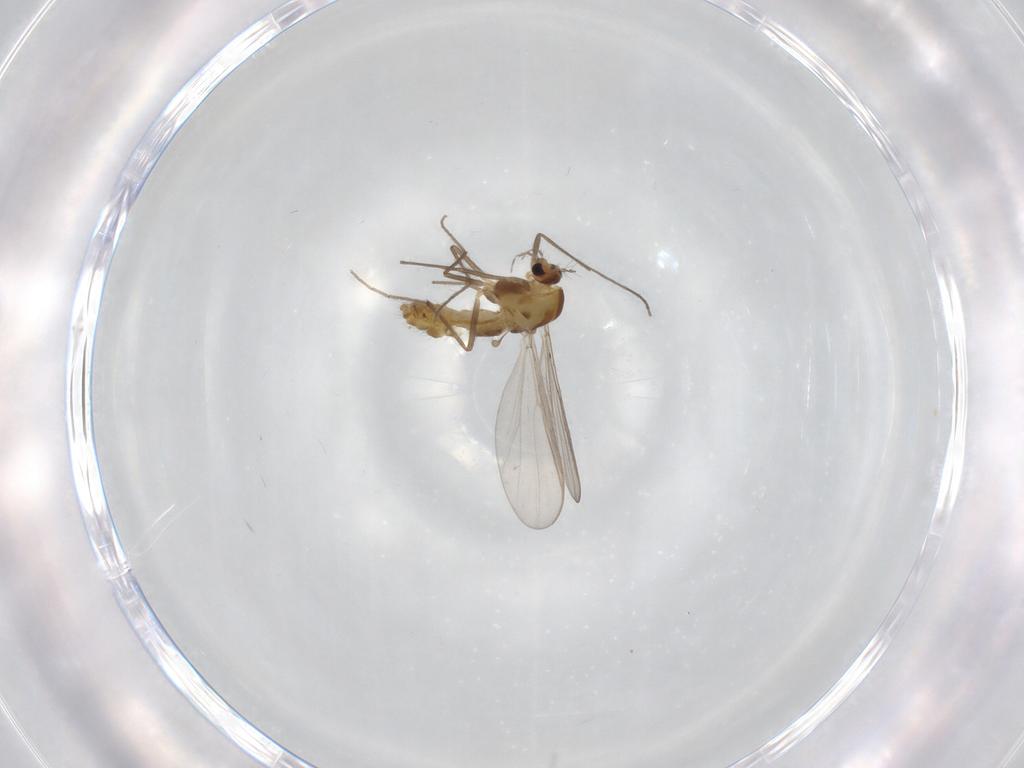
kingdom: Animalia
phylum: Arthropoda
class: Insecta
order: Diptera
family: Chironomidae
